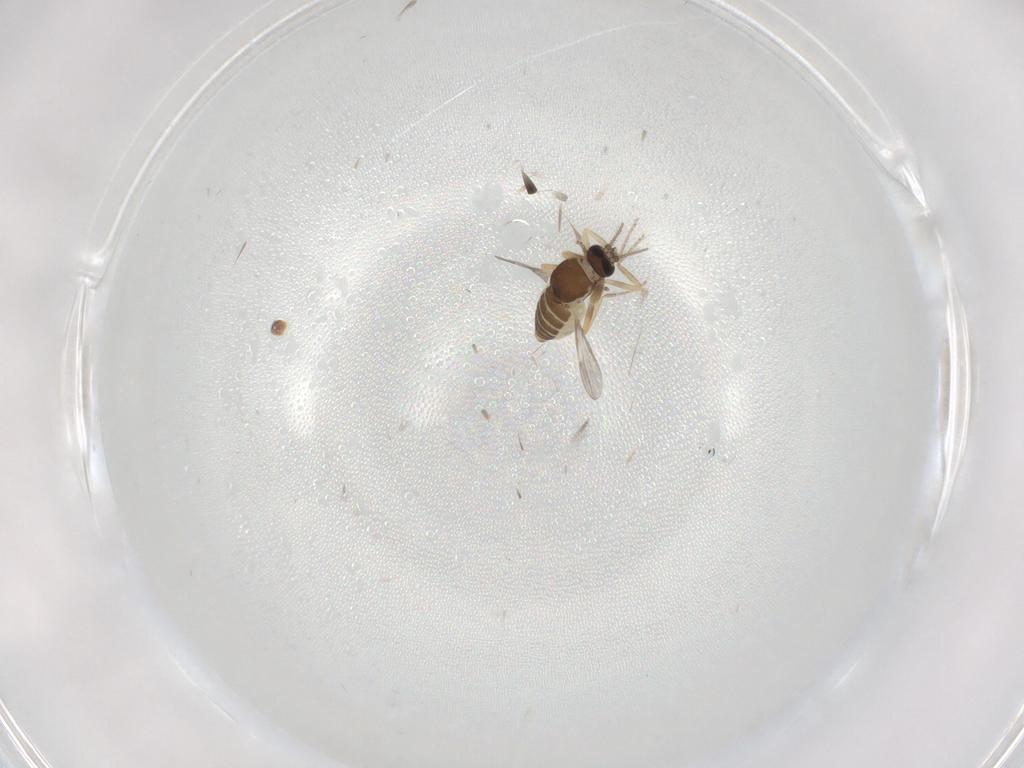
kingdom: Animalia
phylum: Arthropoda
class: Insecta
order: Diptera
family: Ceratopogonidae
